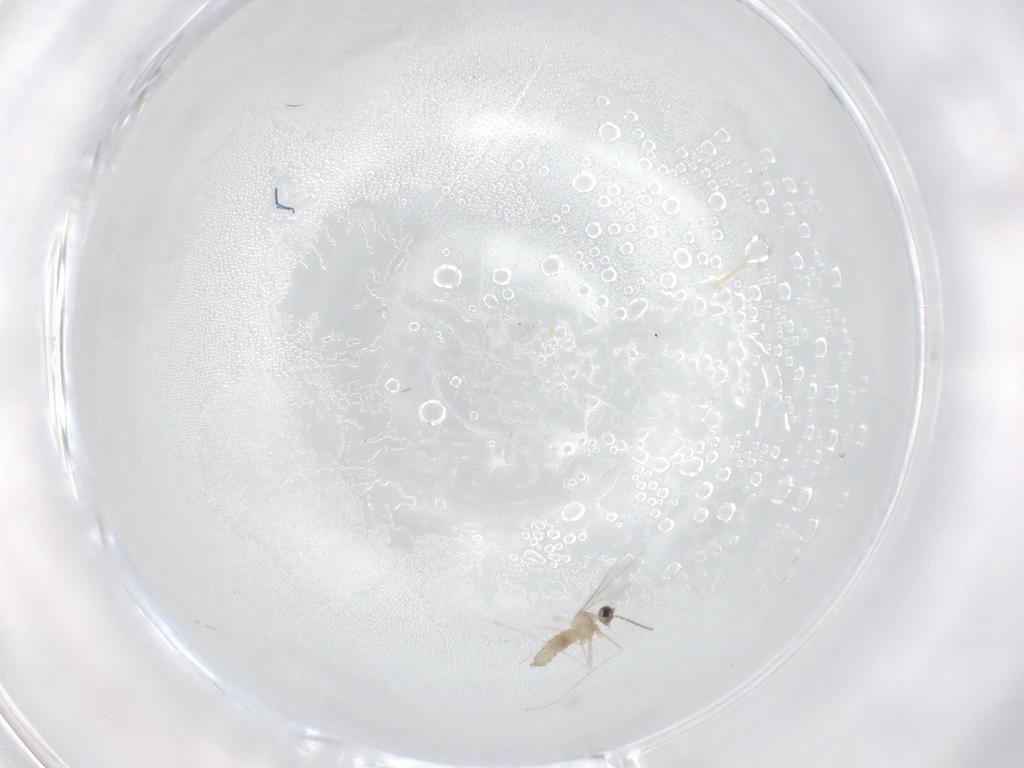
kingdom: Animalia
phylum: Arthropoda
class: Insecta
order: Diptera
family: Cecidomyiidae
